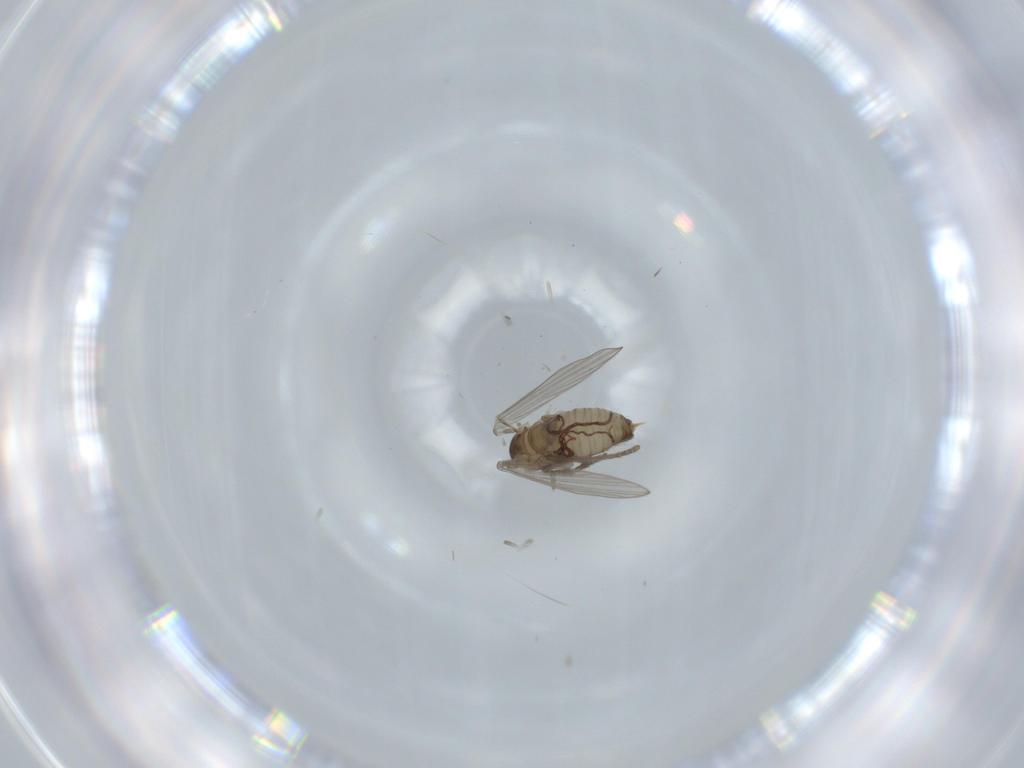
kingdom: Animalia
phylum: Arthropoda
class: Insecta
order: Diptera
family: Psychodidae
